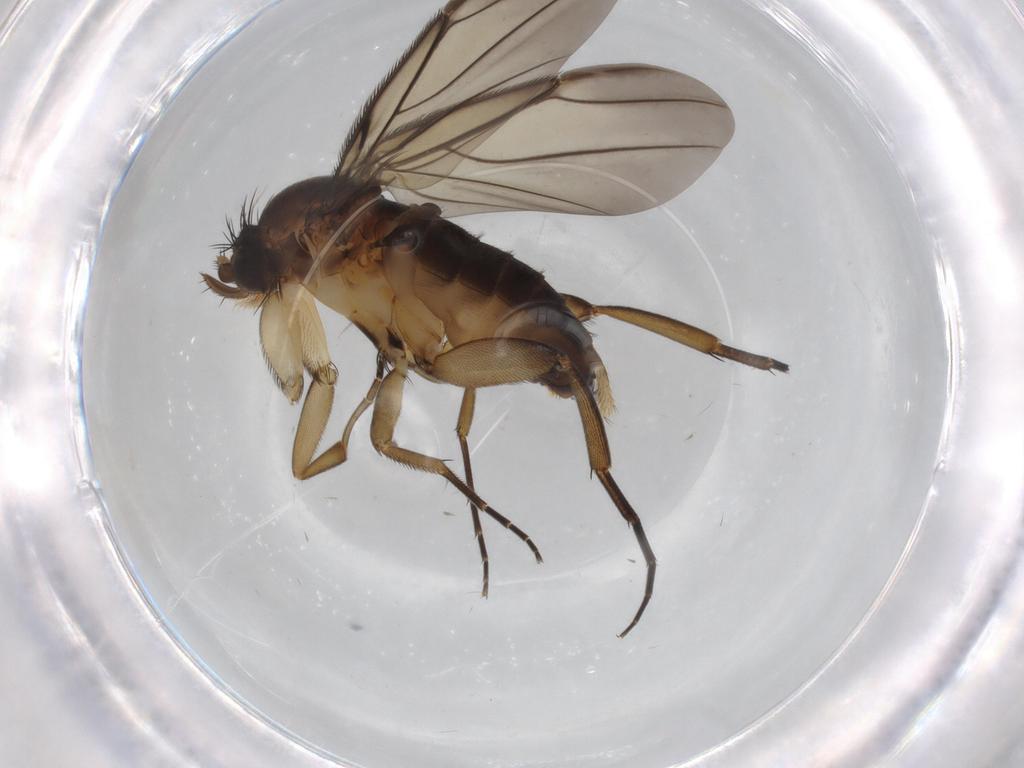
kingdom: Animalia
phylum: Arthropoda
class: Insecta
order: Diptera
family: Phoridae
